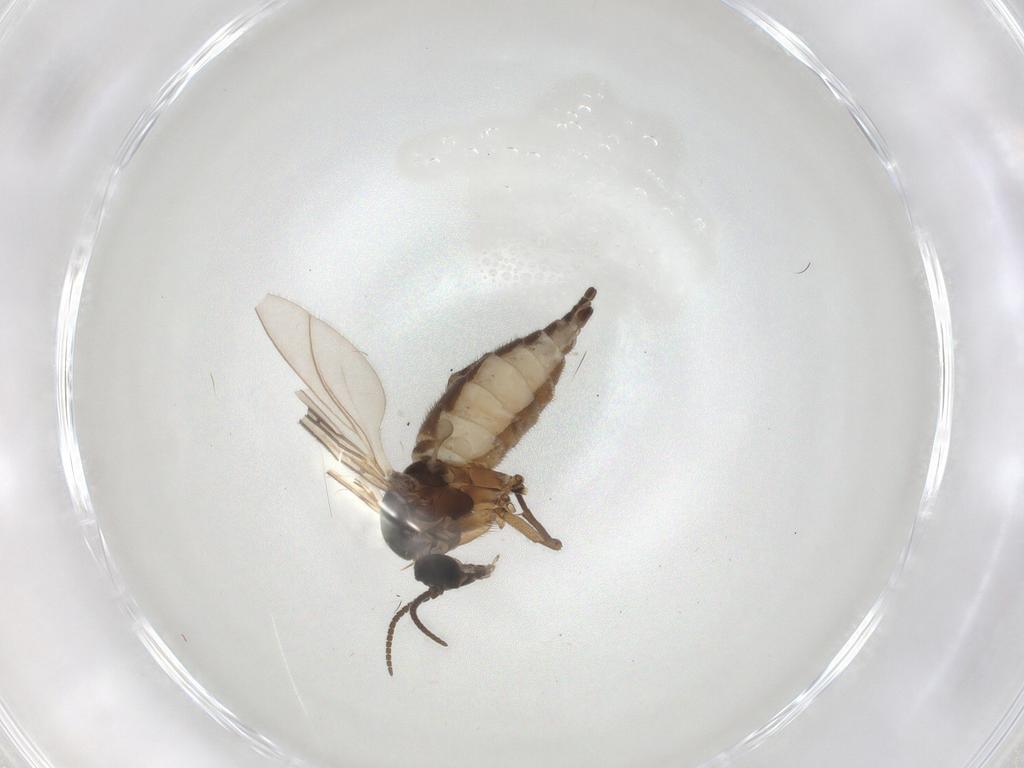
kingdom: Animalia
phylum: Arthropoda
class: Insecta
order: Diptera
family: Sciaridae
